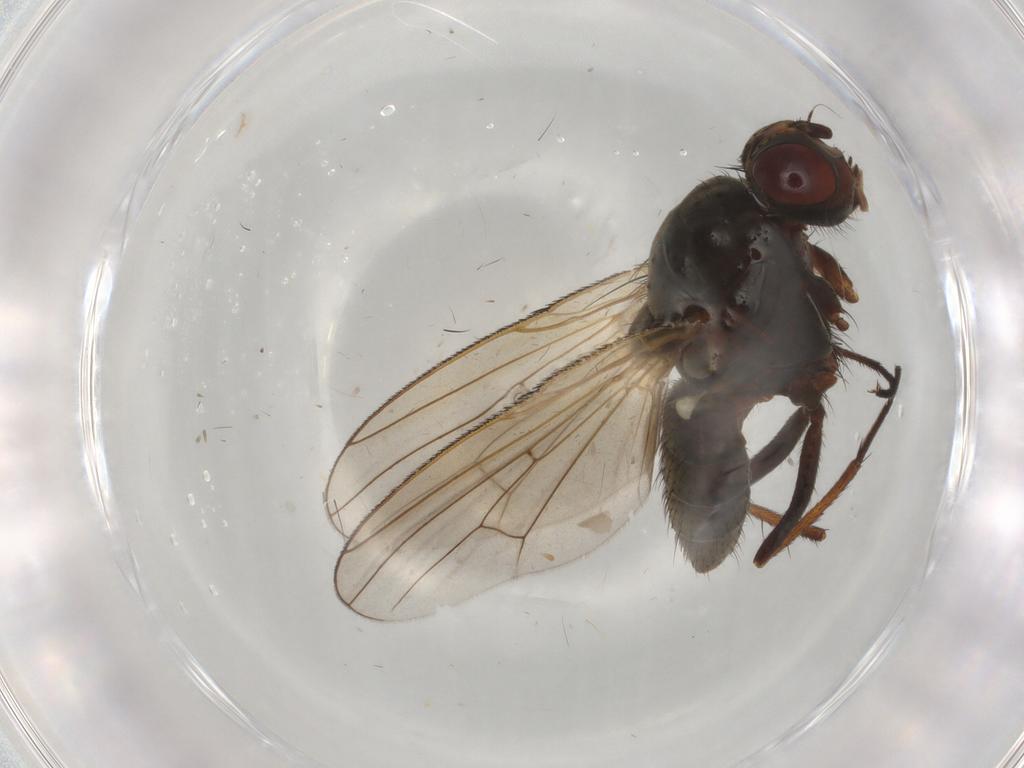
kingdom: Animalia
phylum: Arthropoda
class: Insecta
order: Diptera
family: Anthomyiidae
